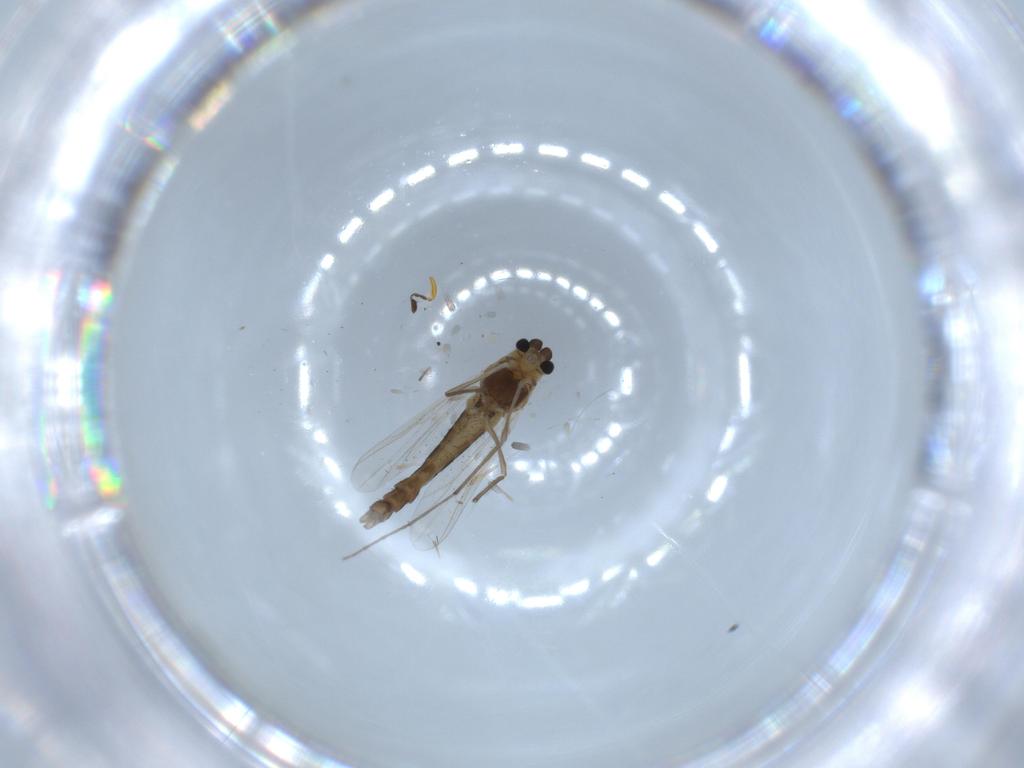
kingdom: Animalia
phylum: Arthropoda
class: Insecta
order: Diptera
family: Chironomidae
